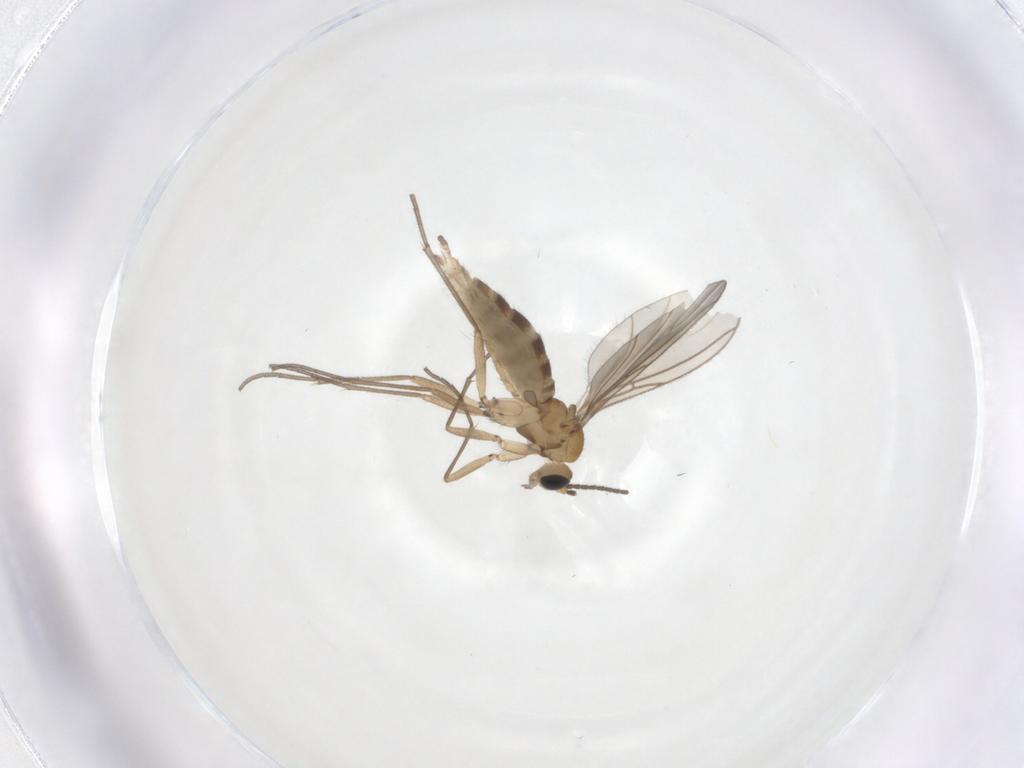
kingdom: Animalia
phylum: Arthropoda
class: Insecta
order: Diptera
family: Sciaridae
